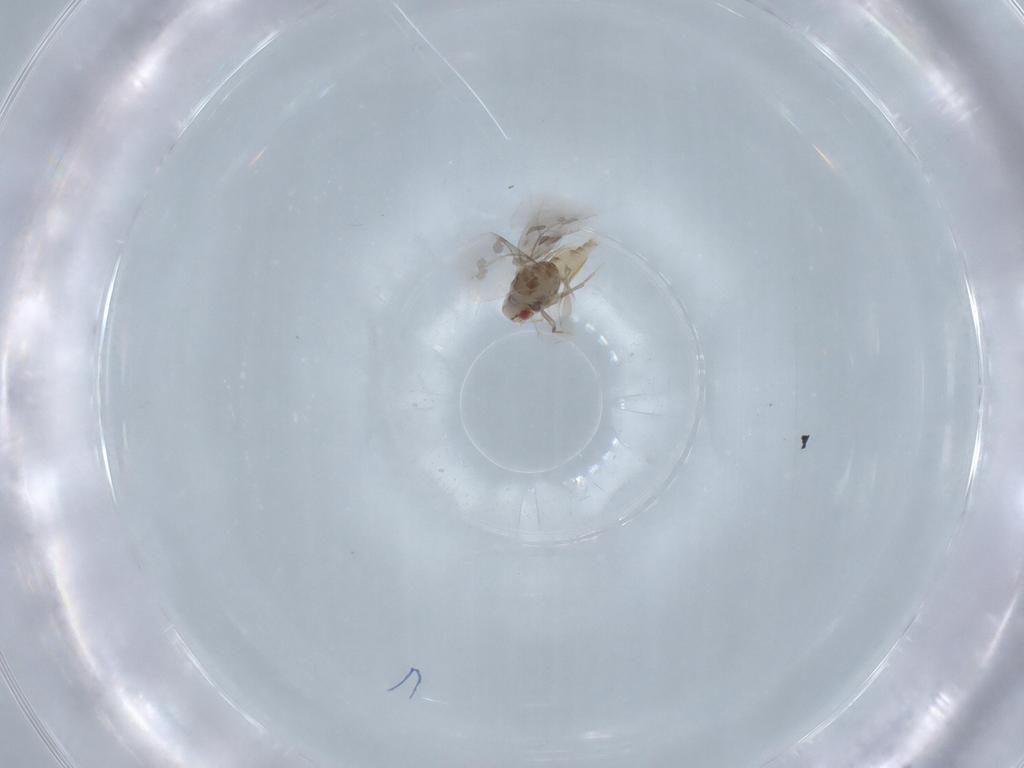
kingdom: Animalia
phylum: Arthropoda
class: Insecta
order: Hemiptera
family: Aleyrodidae
